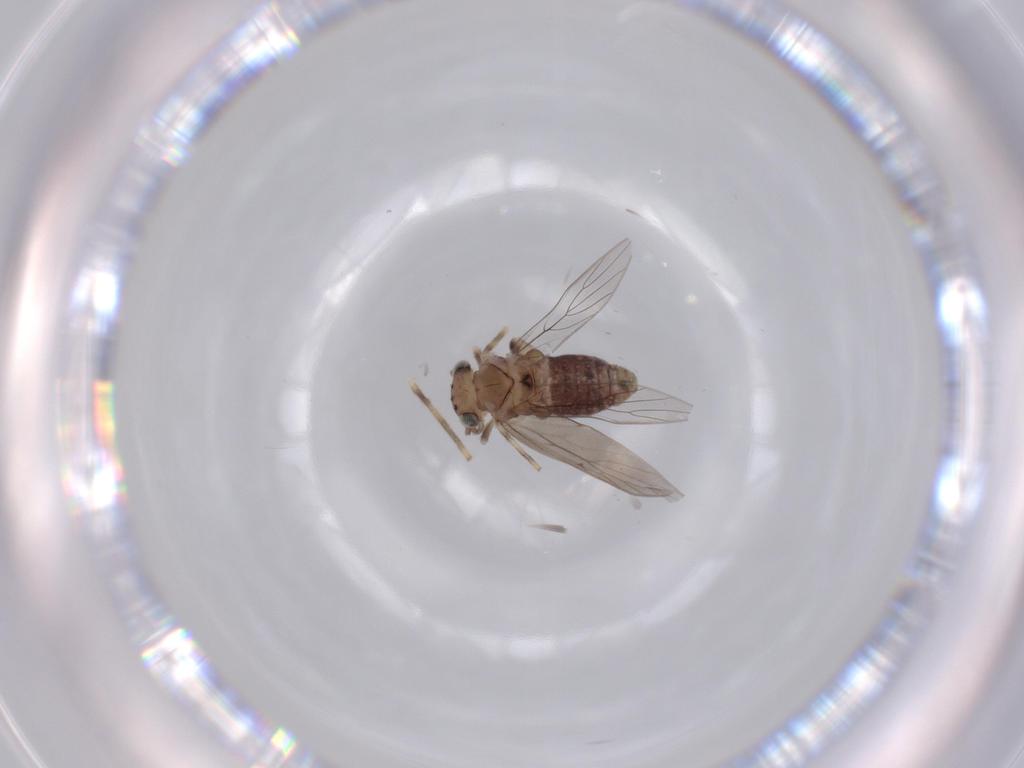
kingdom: Animalia
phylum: Arthropoda
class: Insecta
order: Psocodea
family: Lepidopsocidae
